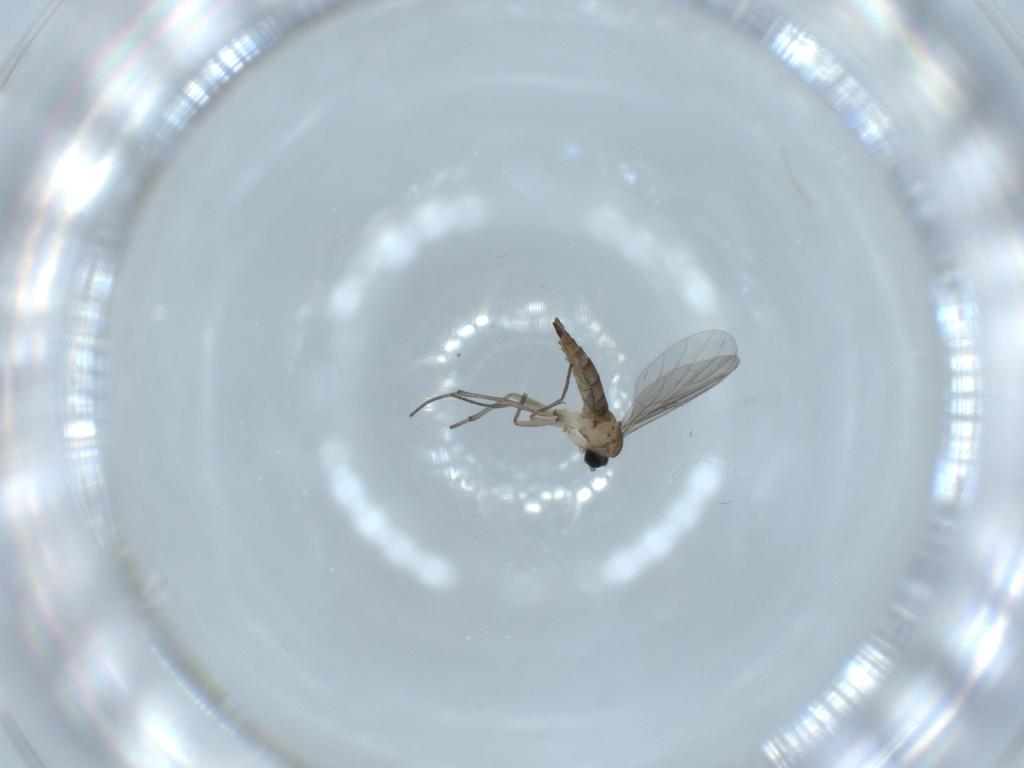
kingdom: Animalia
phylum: Arthropoda
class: Insecta
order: Diptera
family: Sciaridae
